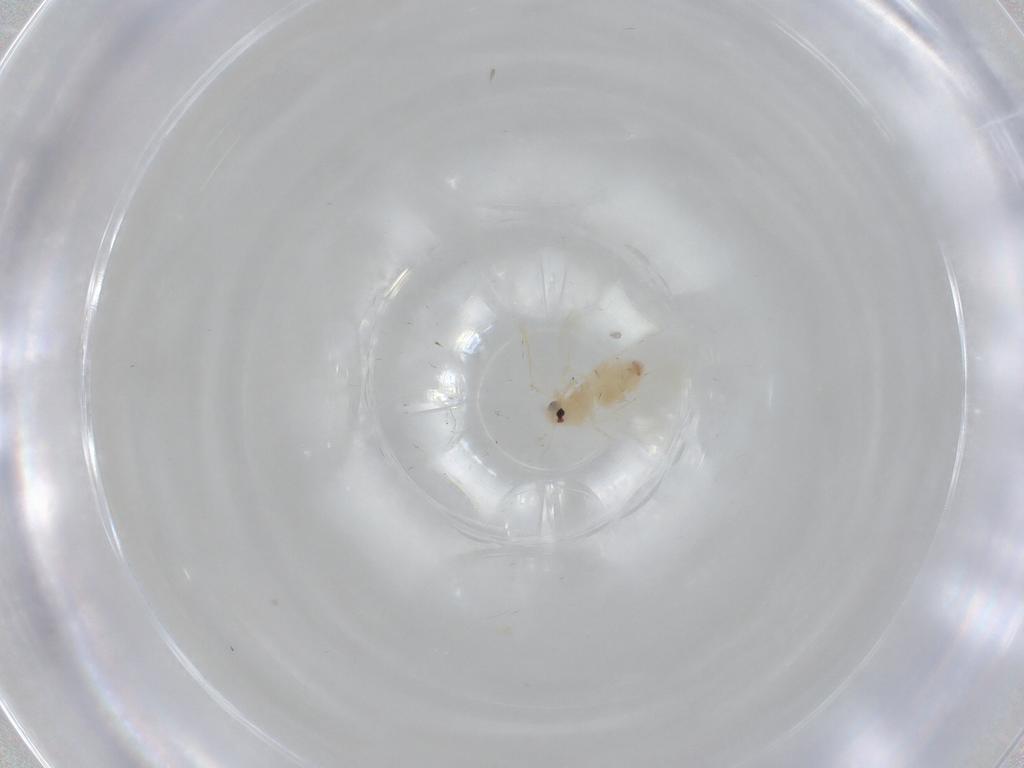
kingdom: Animalia
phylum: Arthropoda
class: Insecta
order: Hemiptera
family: Aleyrodidae
